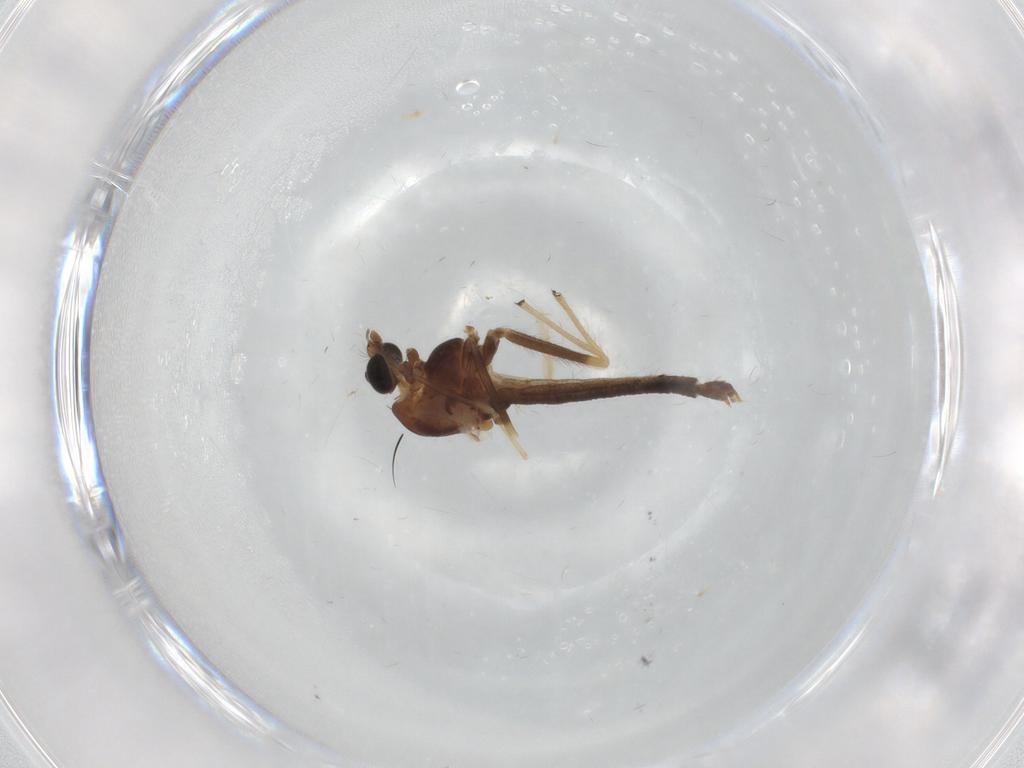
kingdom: Animalia
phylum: Arthropoda
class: Insecta
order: Diptera
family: Chironomidae
